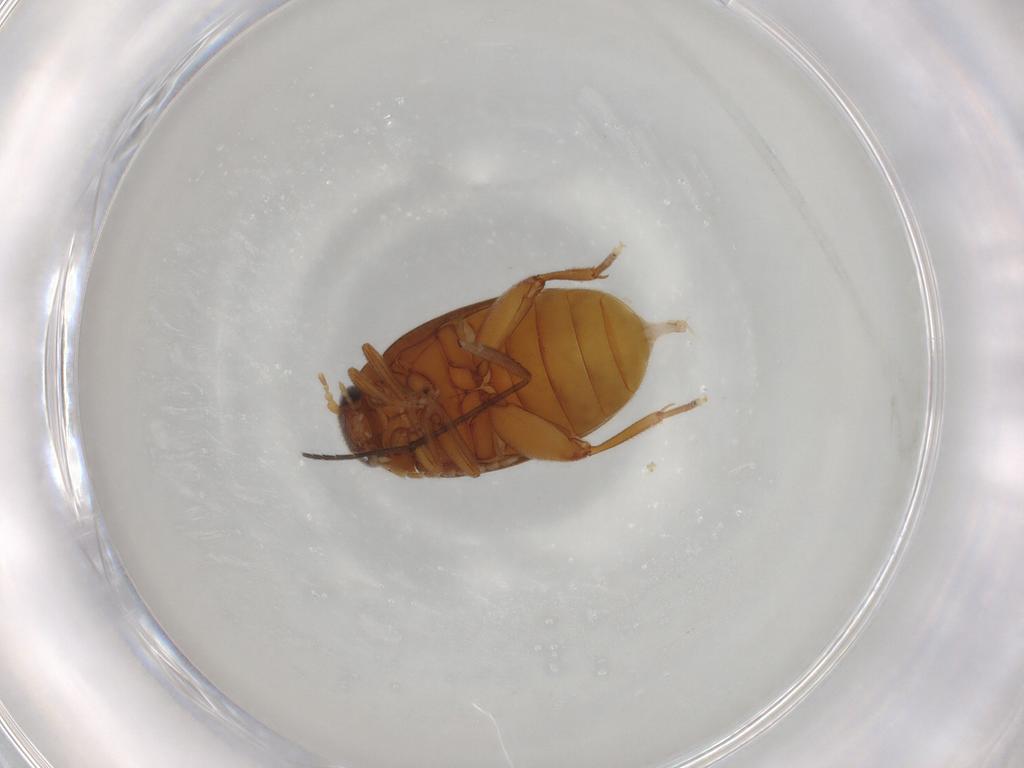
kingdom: Animalia
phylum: Arthropoda
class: Insecta
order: Coleoptera
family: Scirtidae
